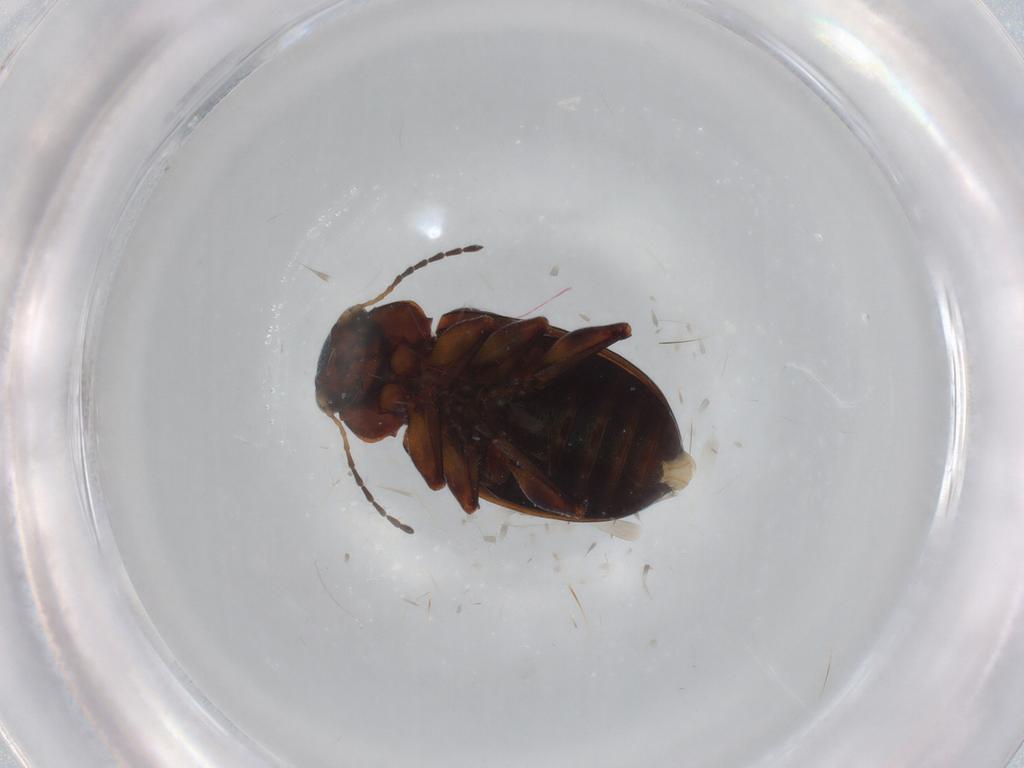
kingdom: Animalia
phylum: Arthropoda
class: Insecta
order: Coleoptera
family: Chrysomelidae
